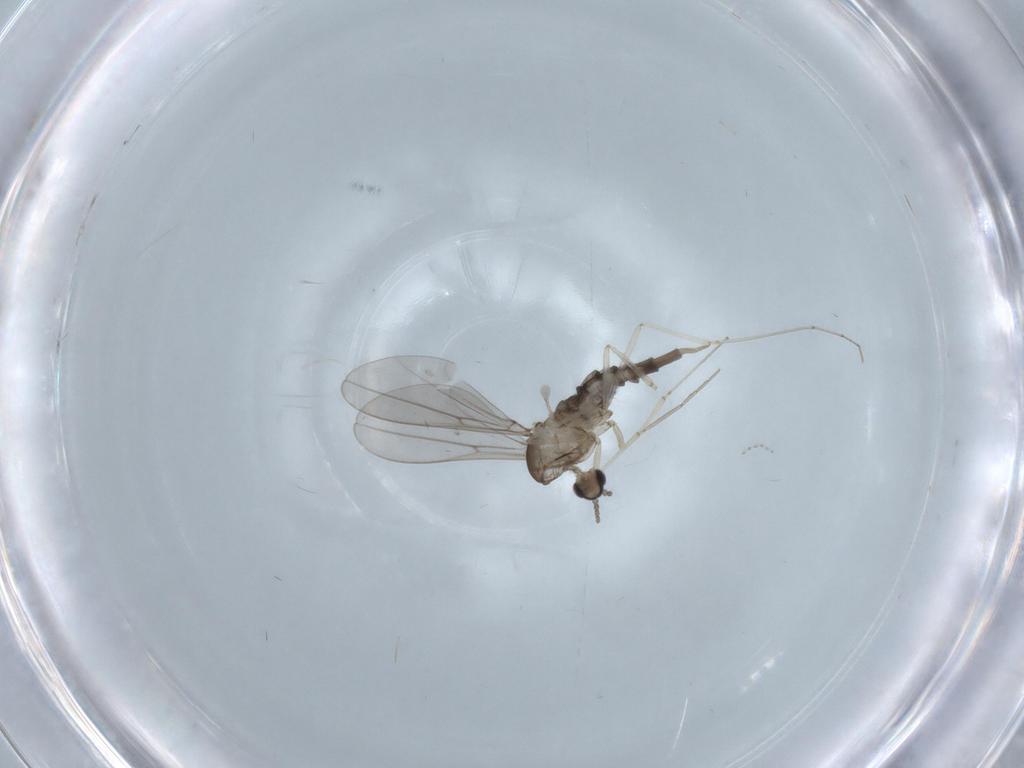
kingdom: Animalia
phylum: Arthropoda
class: Insecta
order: Diptera
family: Cecidomyiidae
